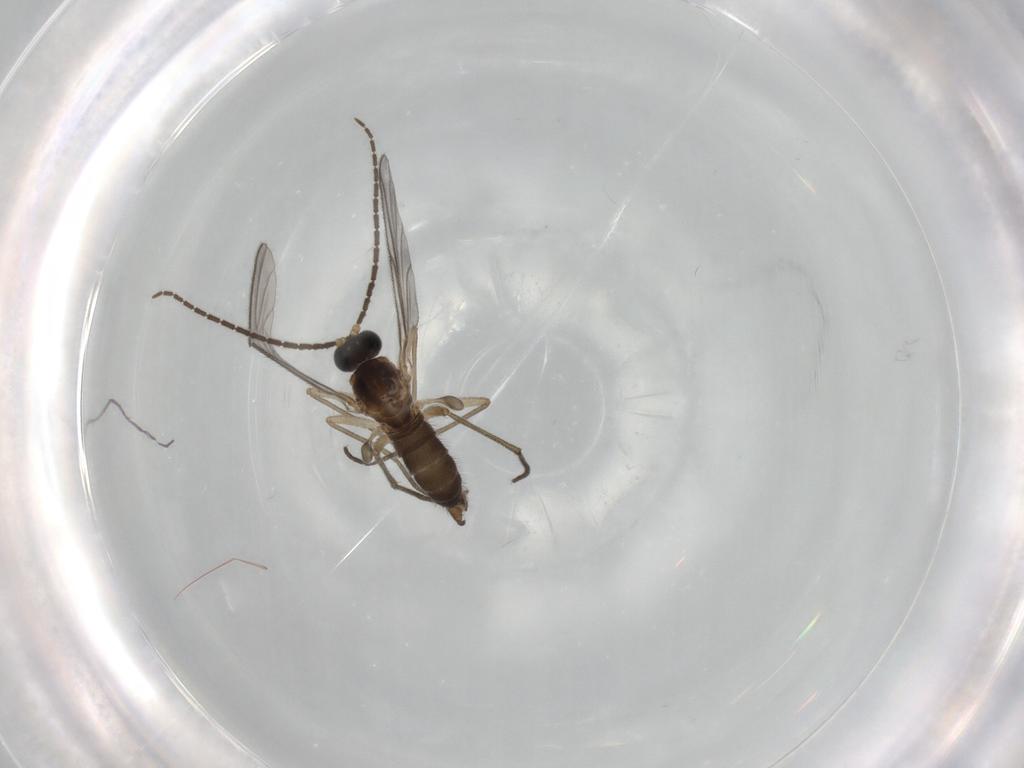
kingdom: Animalia
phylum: Arthropoda
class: Insecta
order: Diptera
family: Sciaridae
